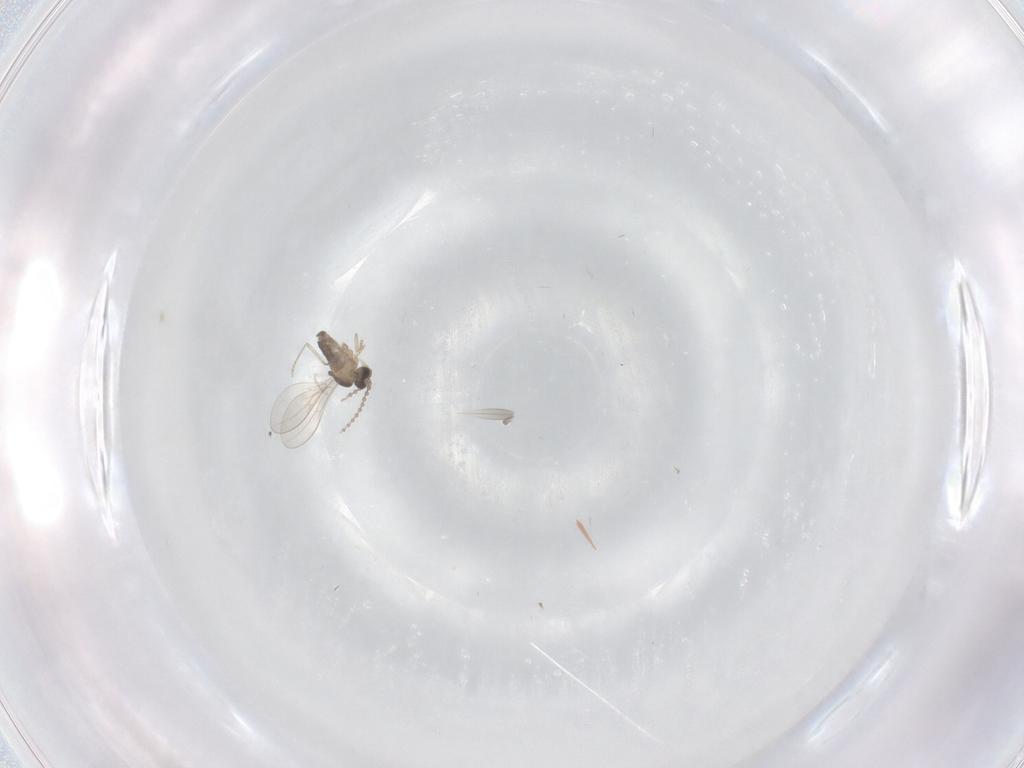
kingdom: Animalia
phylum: Arthropoda
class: Insecta
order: Diptera
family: Cecidomyiidae
